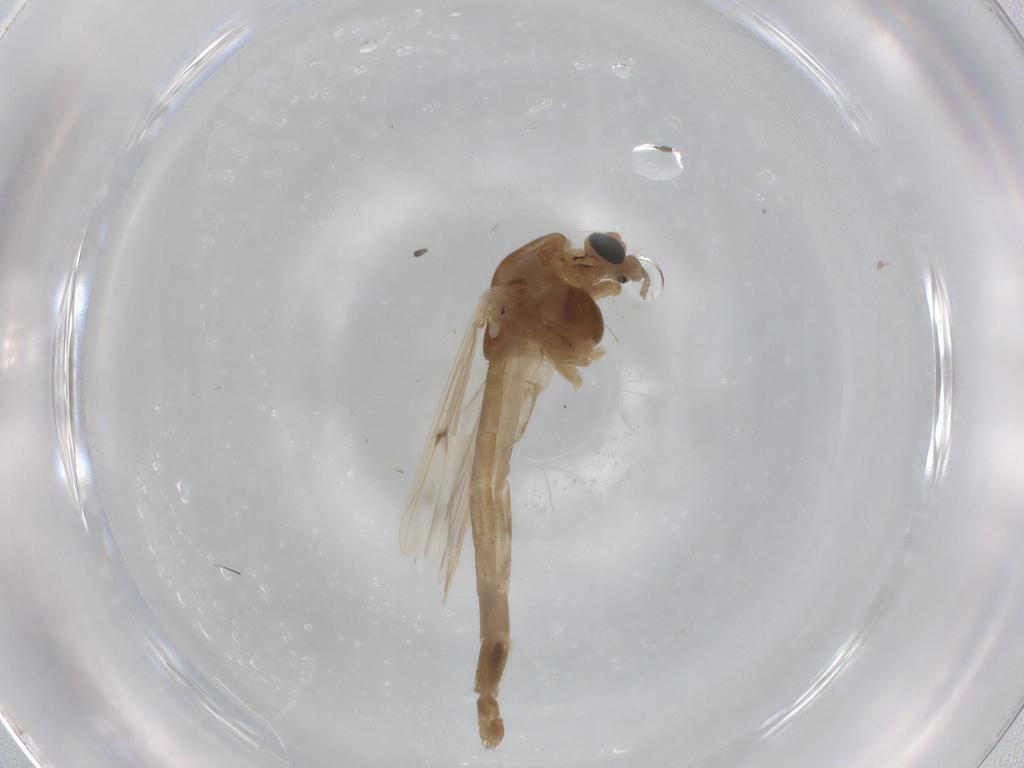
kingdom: Animalia
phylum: Arthropoda
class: Insecta
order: Diptera
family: Chironomidae
